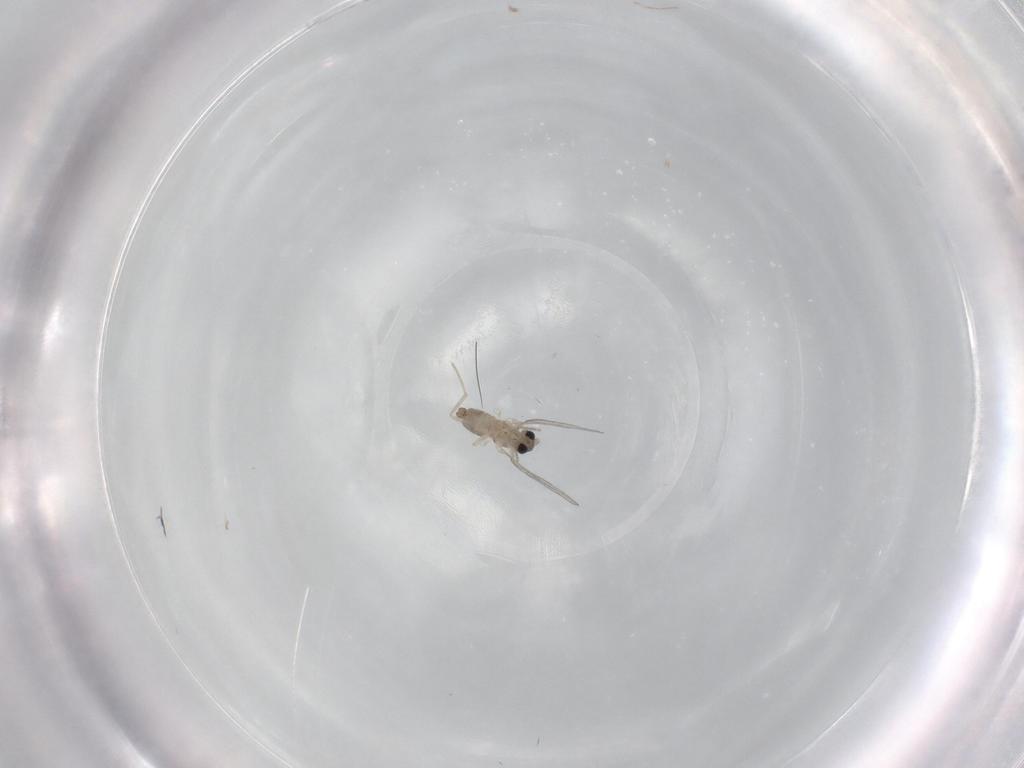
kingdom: Animalia
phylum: Arthropoda
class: Insecta
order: Diptera
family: Cecidomyiidae
